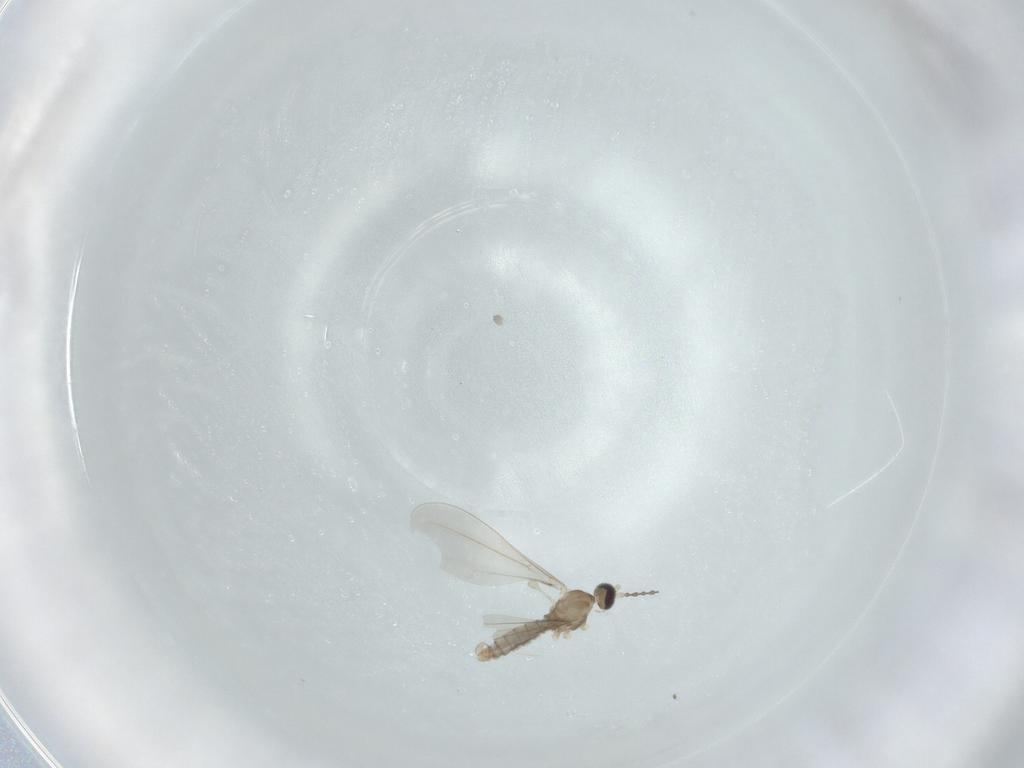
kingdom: Animalia
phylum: Arthropoda
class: Insecta
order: Diptera
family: Cecidomyiidae
